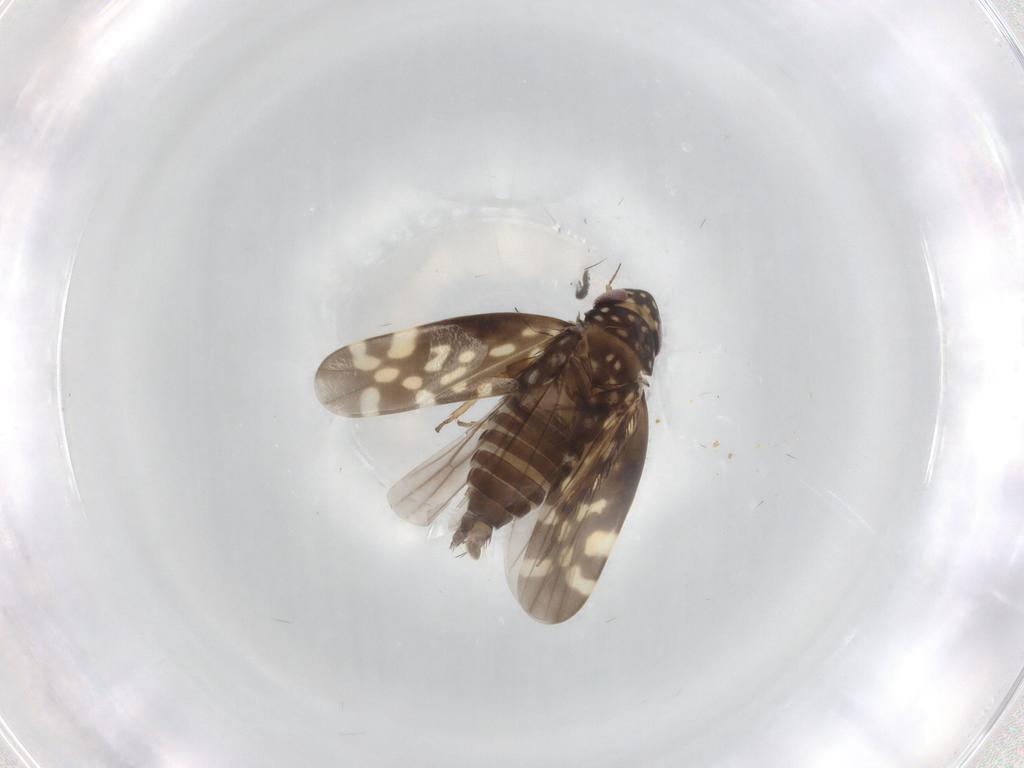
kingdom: Animalia
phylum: Arthropoda
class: Insecta
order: Hemiptera
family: Cicadellidae
